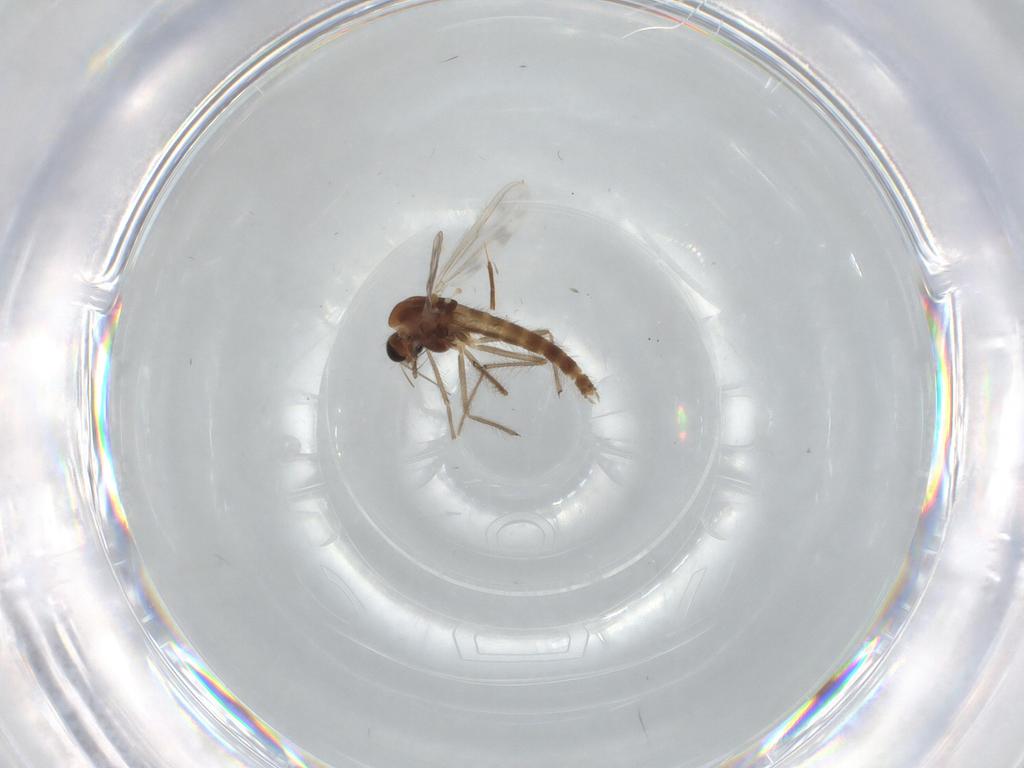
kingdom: Animalia
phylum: Arthropoda
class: Insecta
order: Diptera
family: Chironomidae
